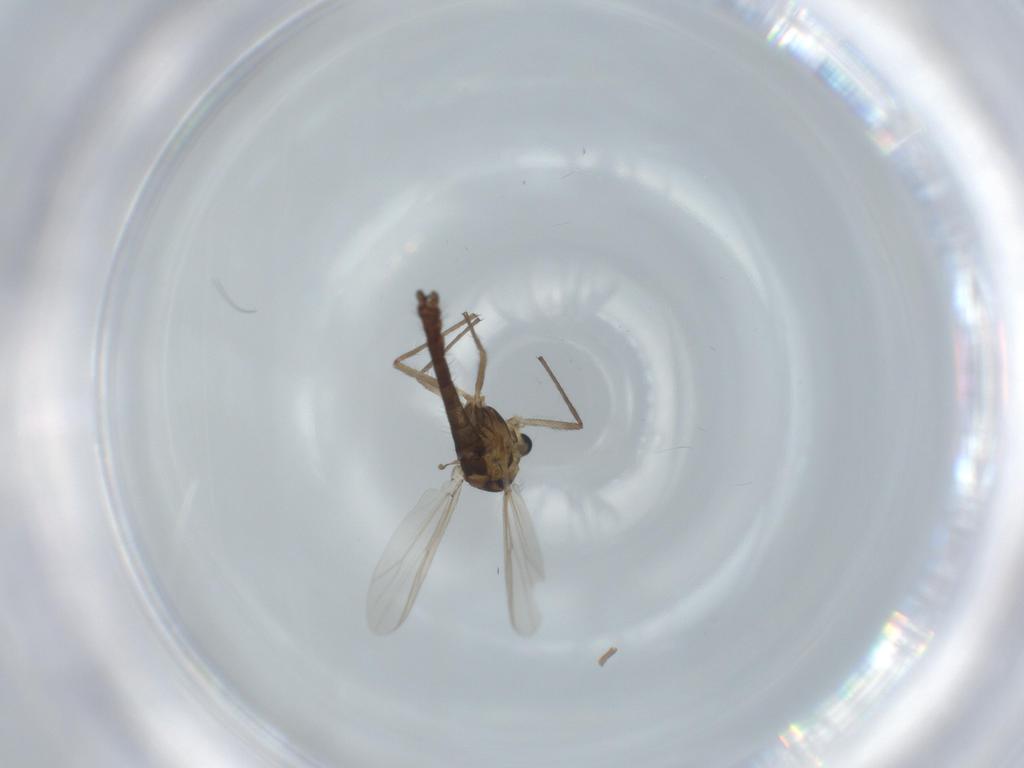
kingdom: Animalia
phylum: Arthropoda
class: Insecta
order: Diptera
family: Chironomidae
